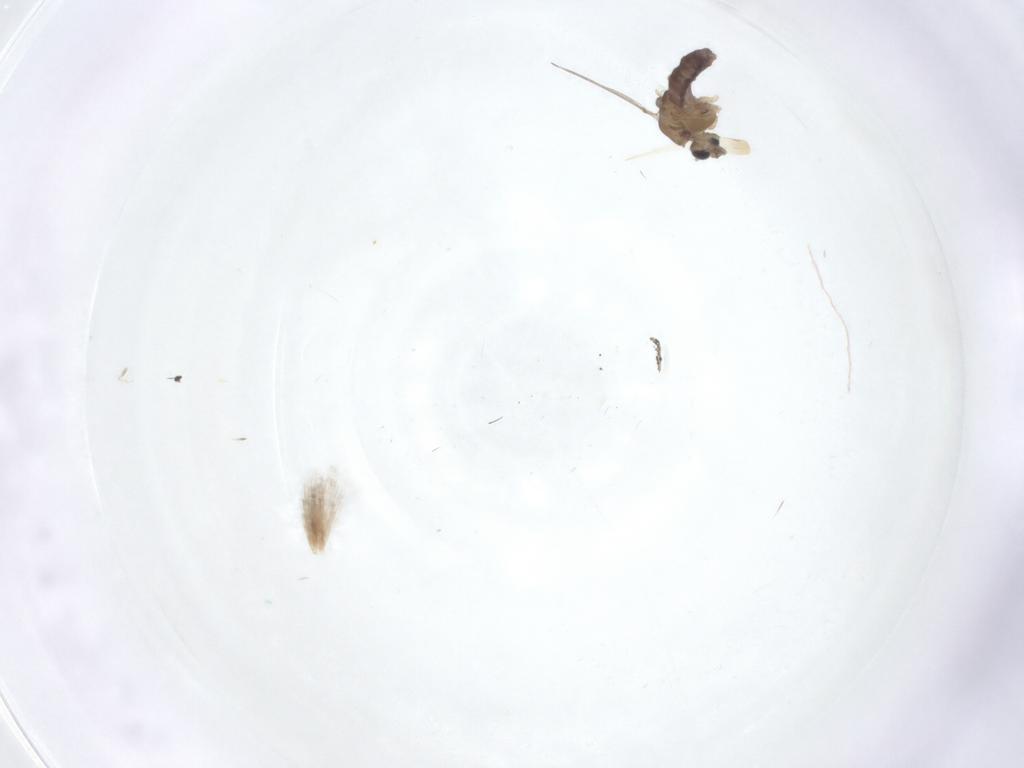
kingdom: Animalia
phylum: Arthropoda
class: Insecta
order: Diptera
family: Chironomidae
